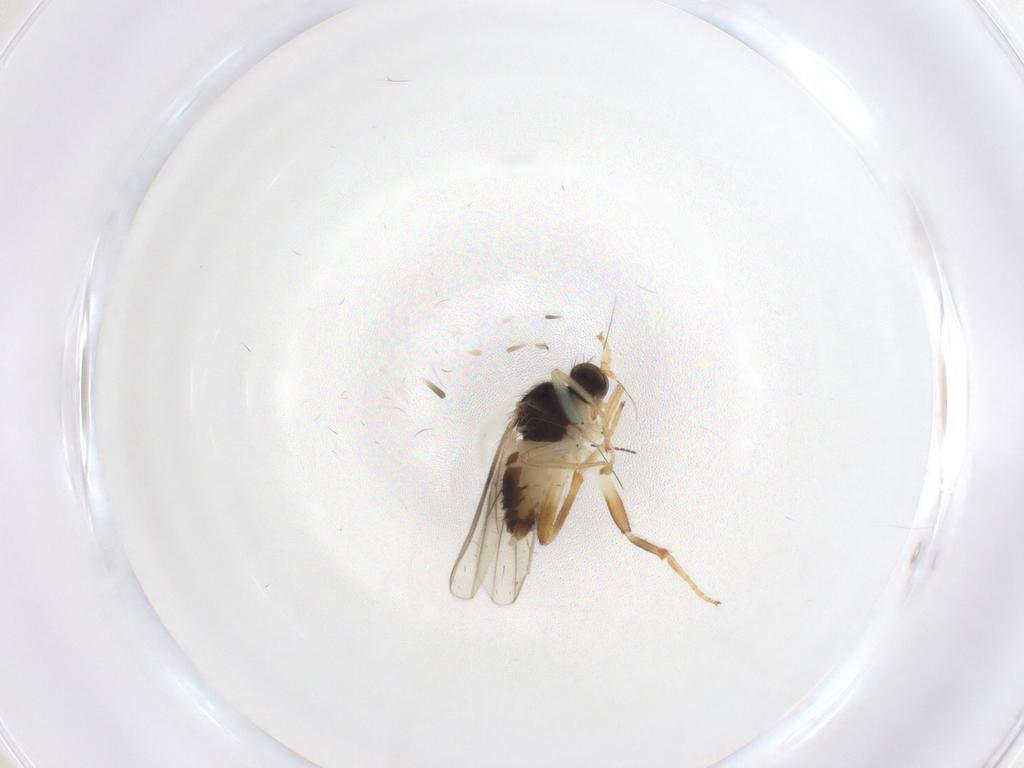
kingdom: Animalia
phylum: Arthropoda
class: Insecta
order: Diptera
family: Hybotidae
